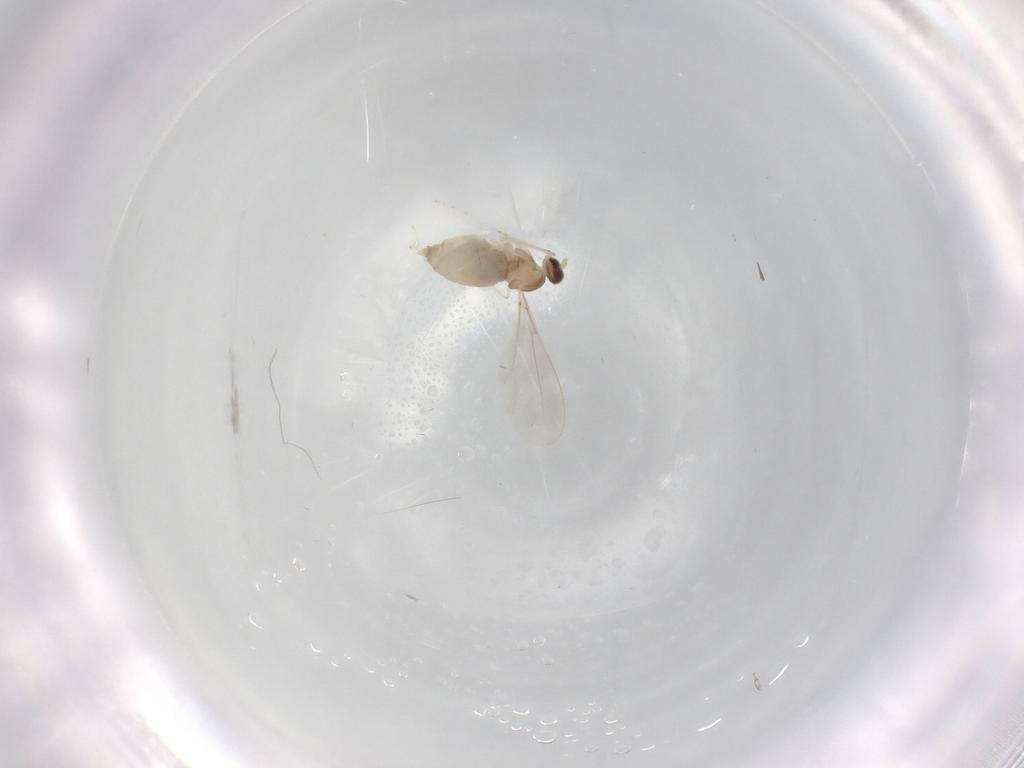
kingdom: Animalia
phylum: Arthropoda
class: Insecta
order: Diptera
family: Cecidomyiidae
